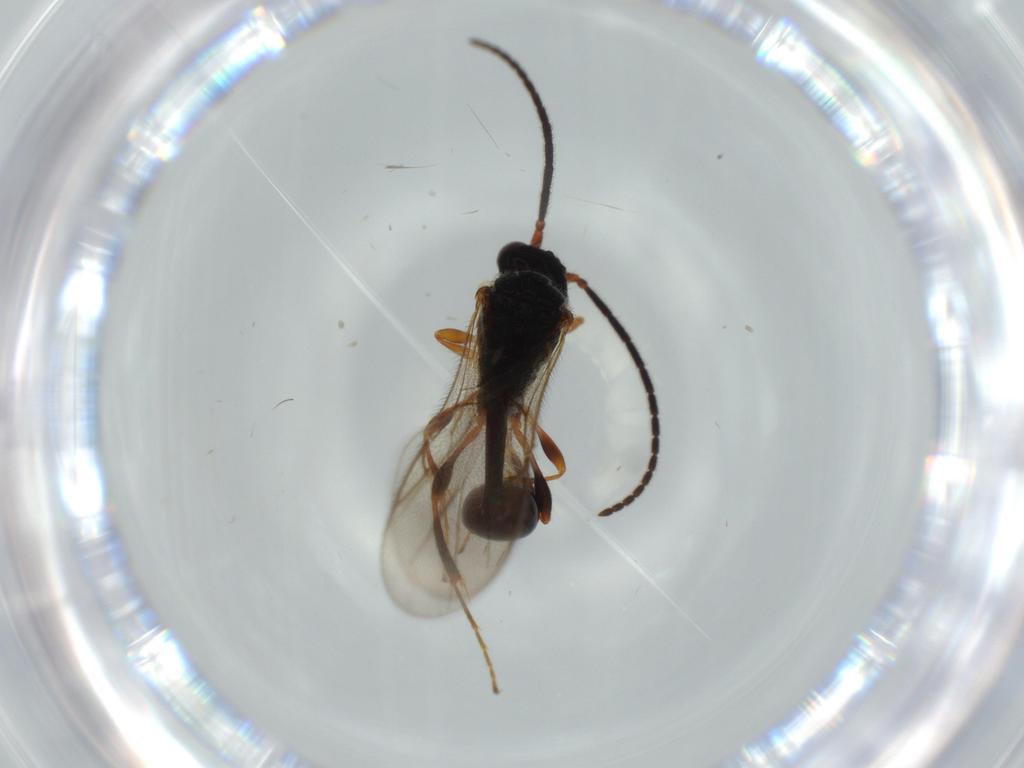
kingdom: Animalia
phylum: Arthropoda
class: Insecta
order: Hymenoptera
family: Diapriidae
